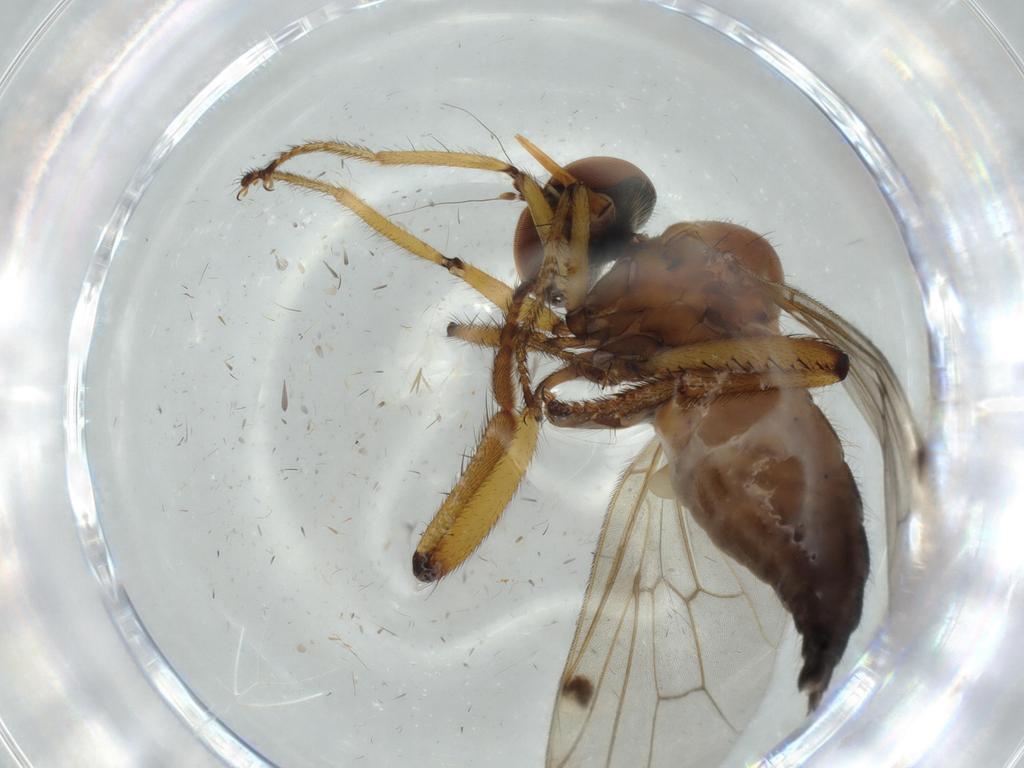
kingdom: Animalia
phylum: Arthropoda
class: Insecta
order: Diptera
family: Hybotidae
